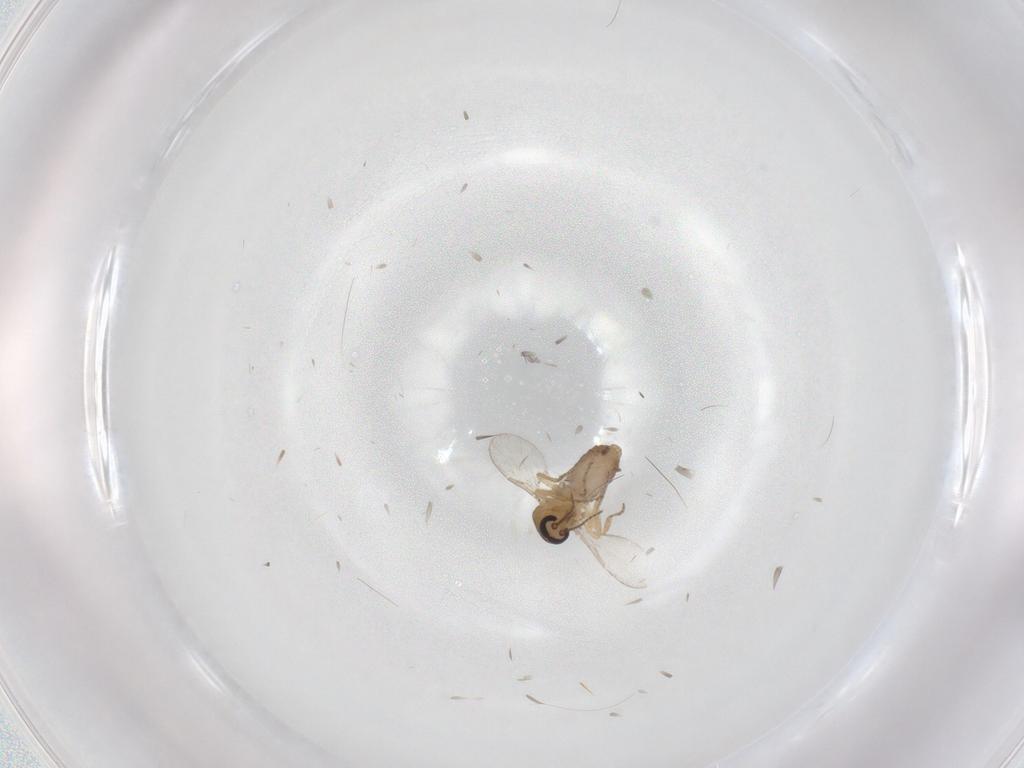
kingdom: Animalia
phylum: Arthropoda
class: Insecta
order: Diptera
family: Ceratopogonidae
